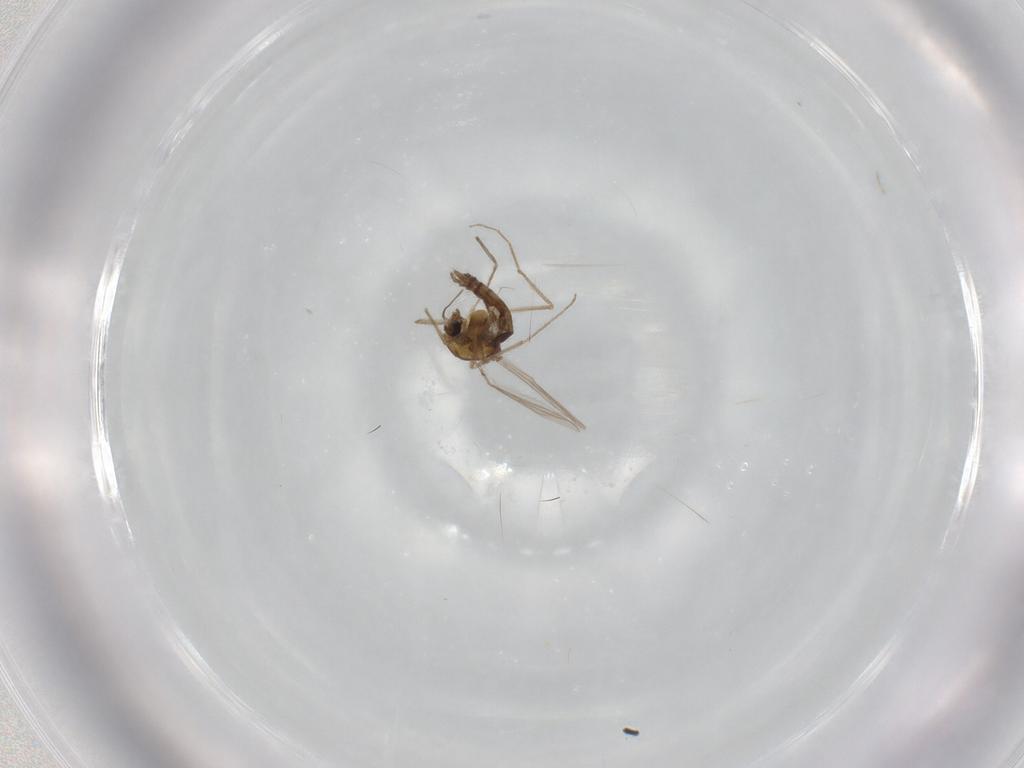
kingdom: Animalia
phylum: Arthropoda
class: Insecta
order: Diptera
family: Chironomidae
